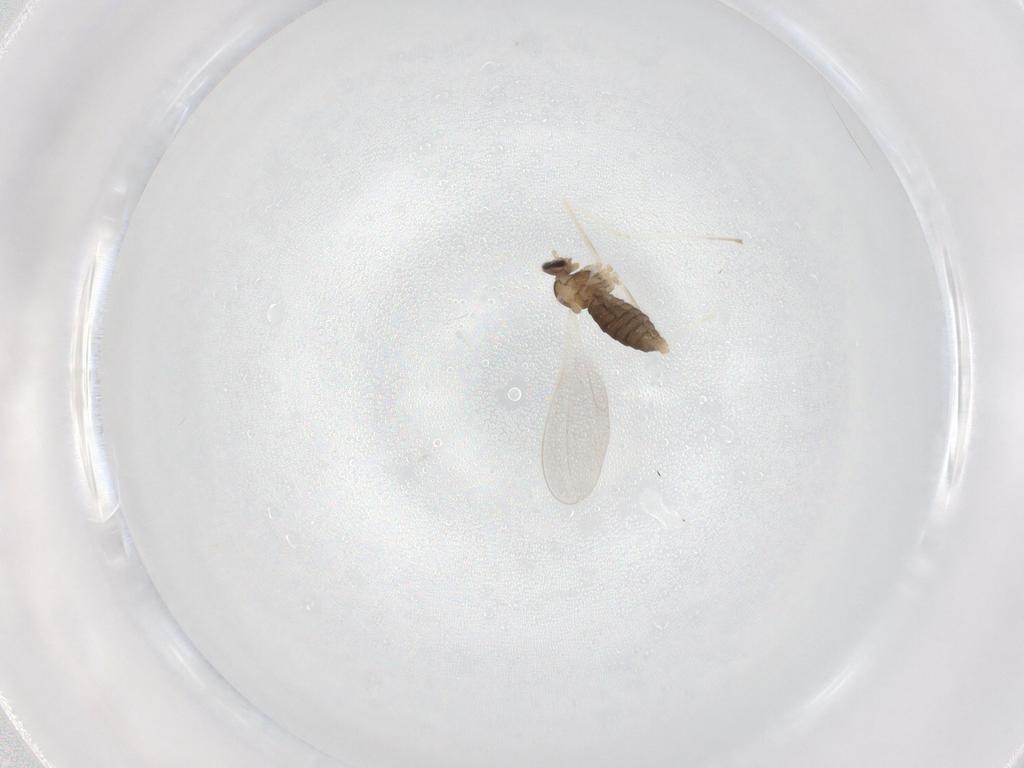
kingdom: Animalia
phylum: Arthropoda
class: Insecta
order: Diptera
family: Cecidomyiidae
